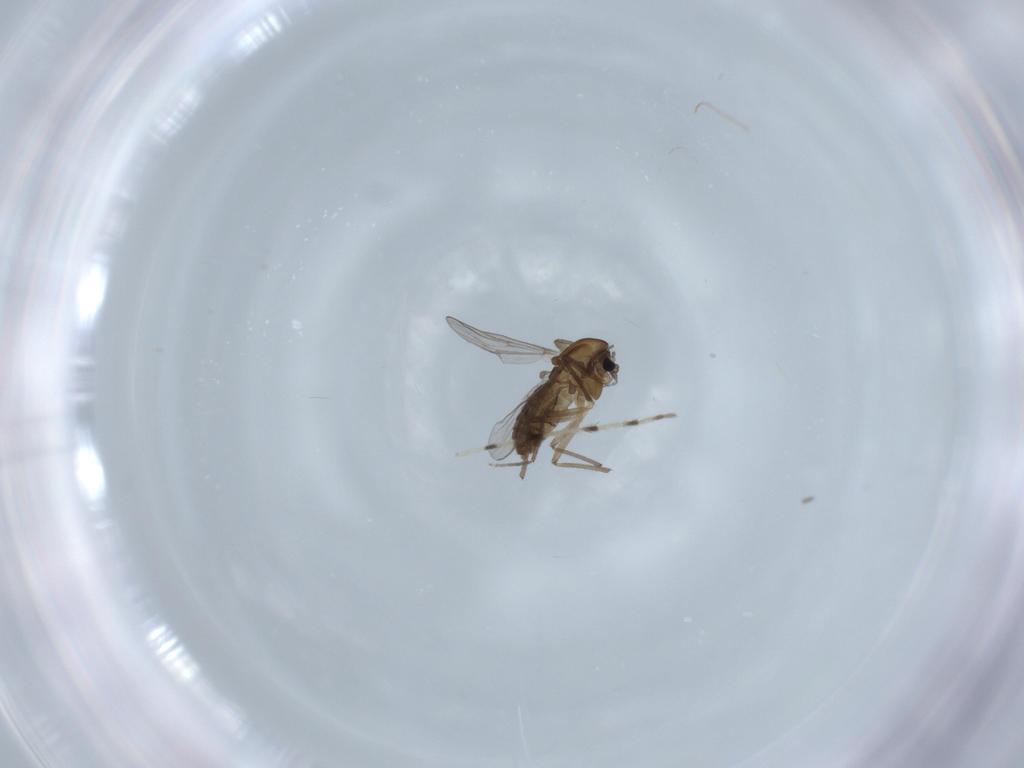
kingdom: Animalia
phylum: Arthropoda
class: Insecta
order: Diptera
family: Chironomidae
